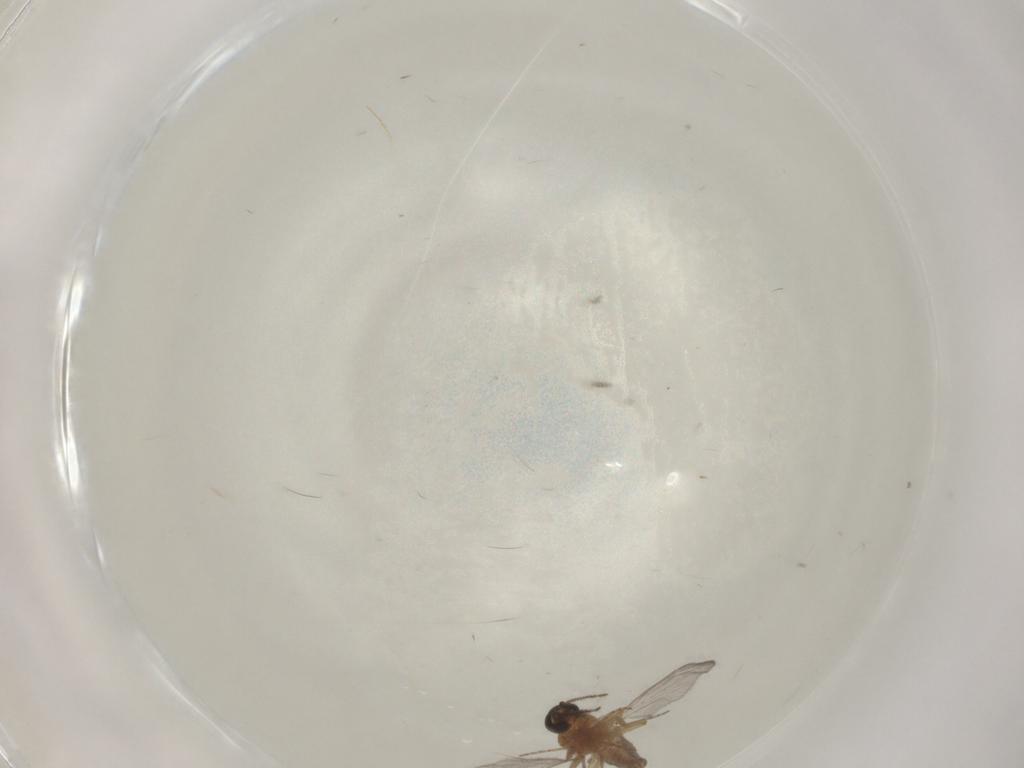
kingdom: Animalia
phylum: Arthropoda
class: Insecta
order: Diptera
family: Ceratopogonidae
